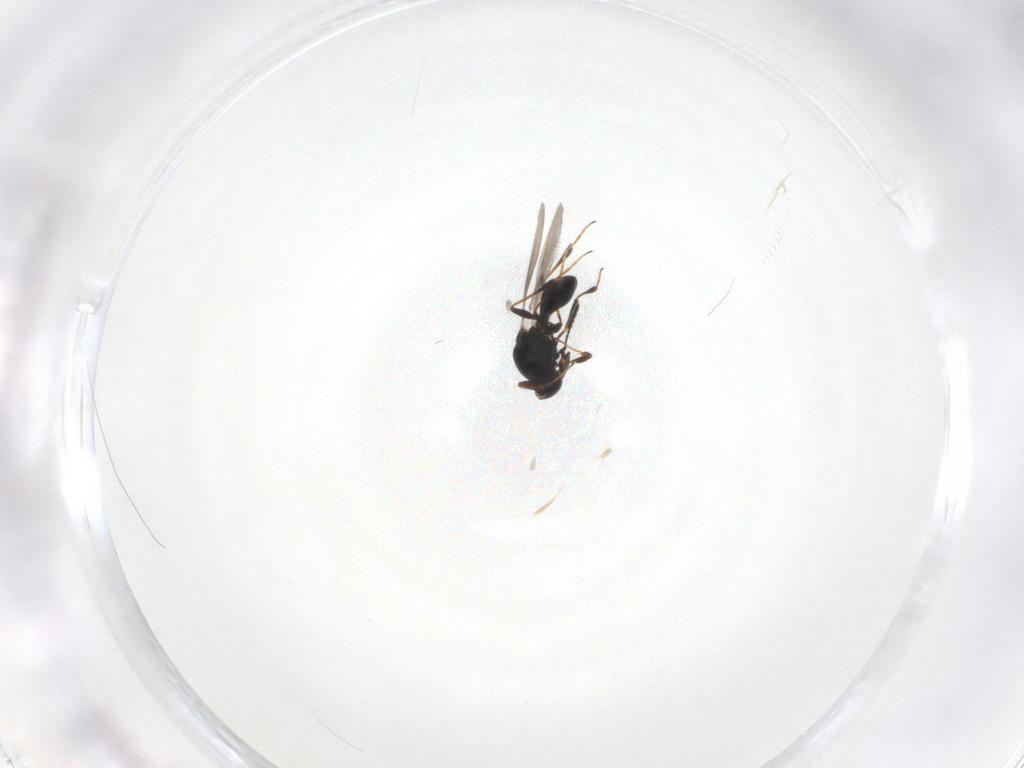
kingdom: Animalia
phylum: Arthropoda
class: Insecta
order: Hymenoptera
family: Platygastridae
